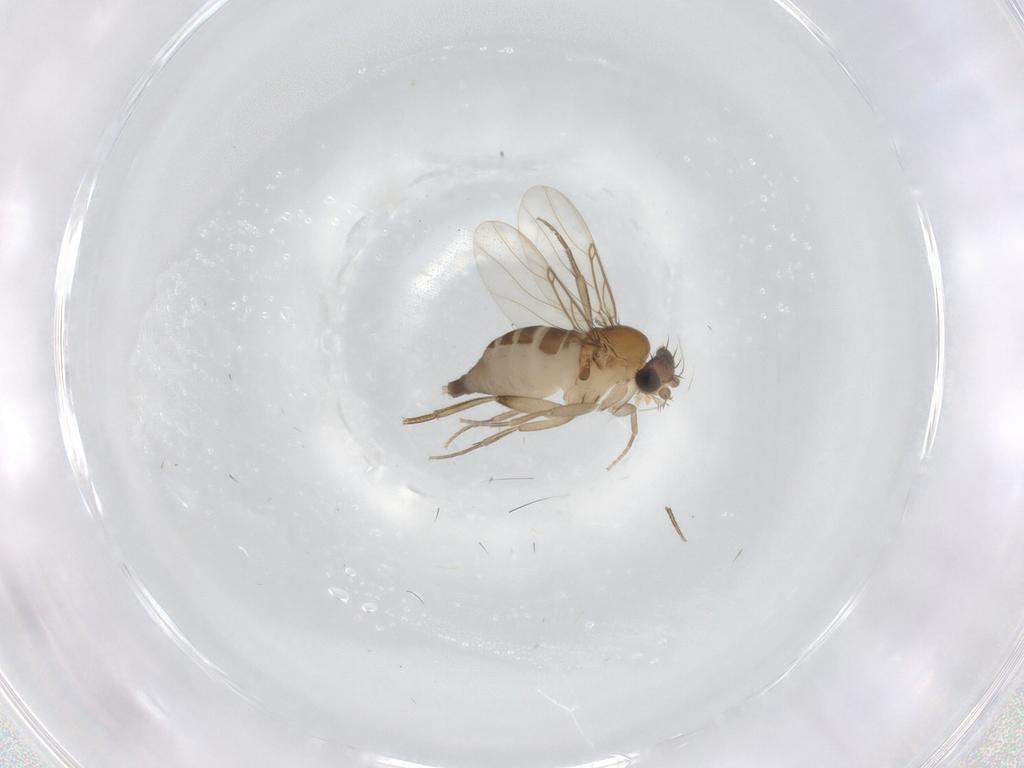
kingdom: Animalia
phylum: Arthropoda
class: Insecta
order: Diptera
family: Phoridae
